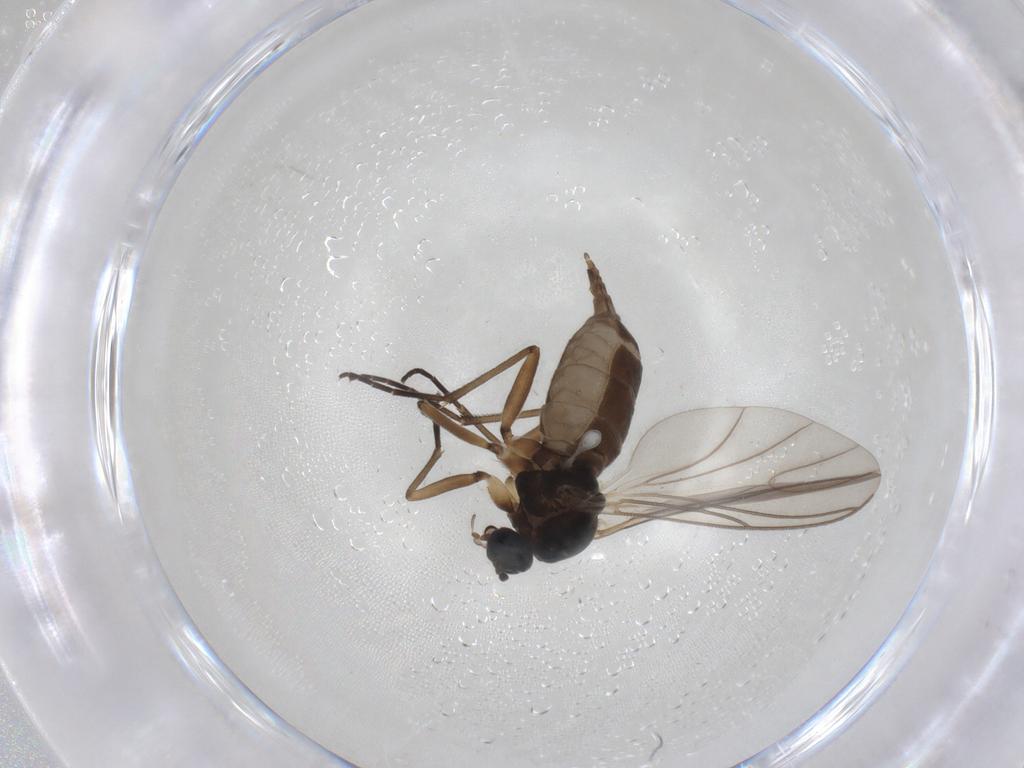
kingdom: Animalia
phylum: Arthropoda
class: Insecta
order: Diptera
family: Sciaridae
